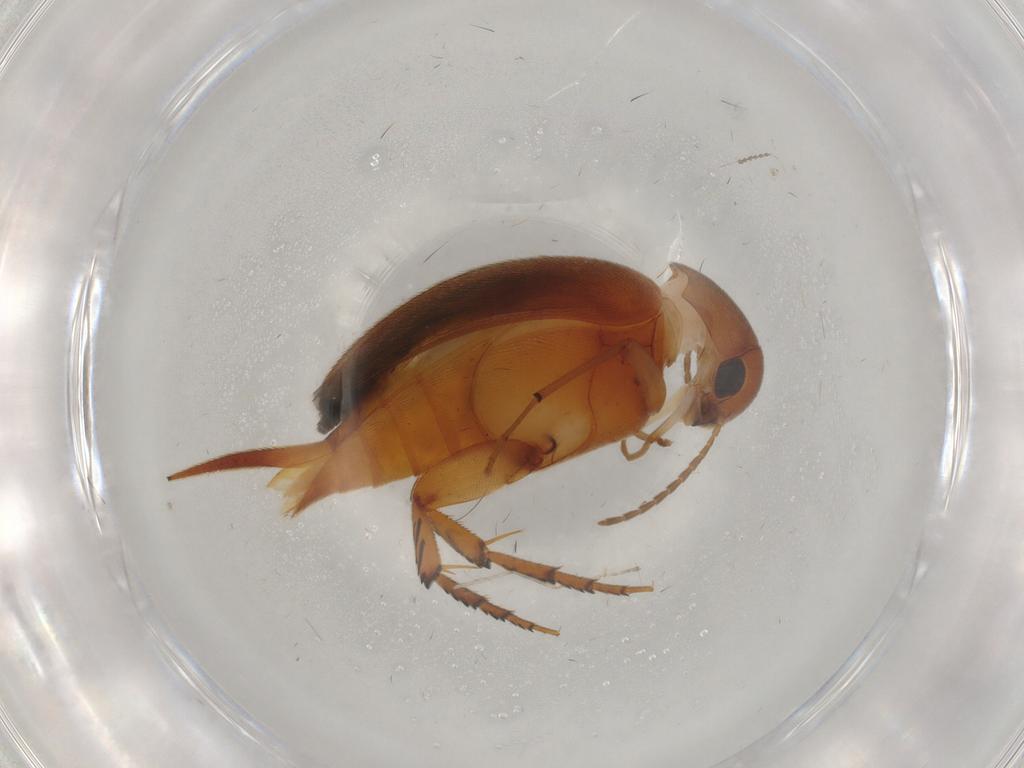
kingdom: Animalia
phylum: Arthropoda
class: Insecta
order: Coleoptera
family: Mordellidae
